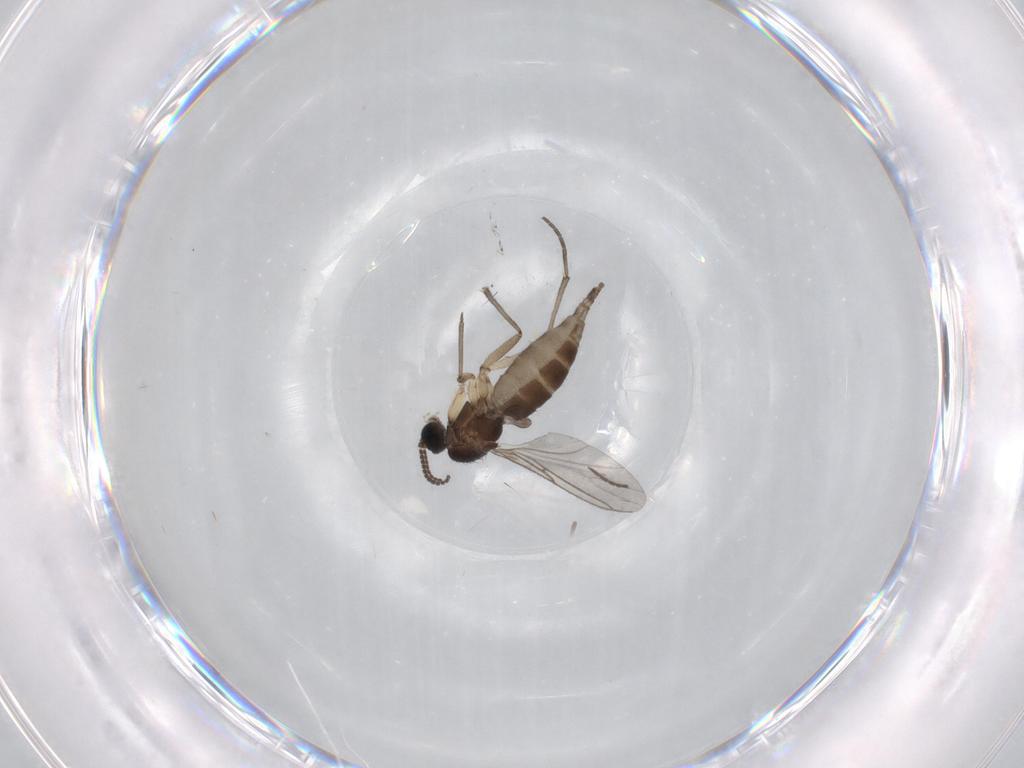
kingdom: Animalia
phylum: Arthropoda
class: Insecta
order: Diptera
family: Sciaridae
